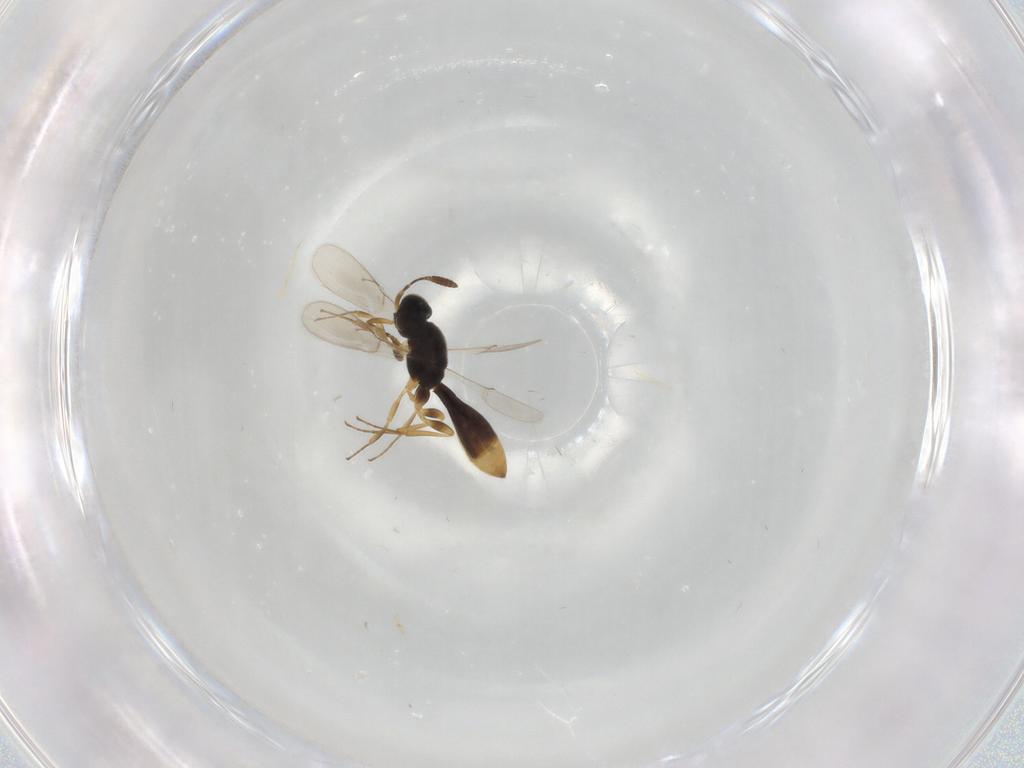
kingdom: Animalia
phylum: Arthropoda
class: Insecta
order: Hymenoptera
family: Scelionidae
